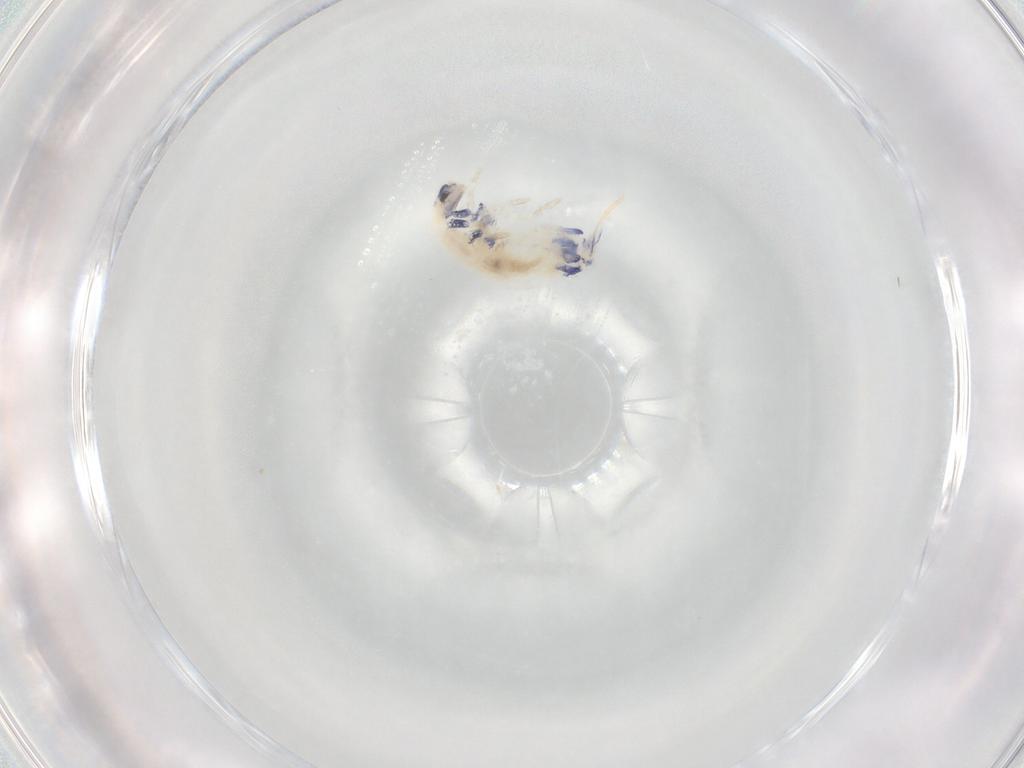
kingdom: Animalia
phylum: Arthropoda
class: Collembola
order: Entomobryomorpha
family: Entomobryidae
